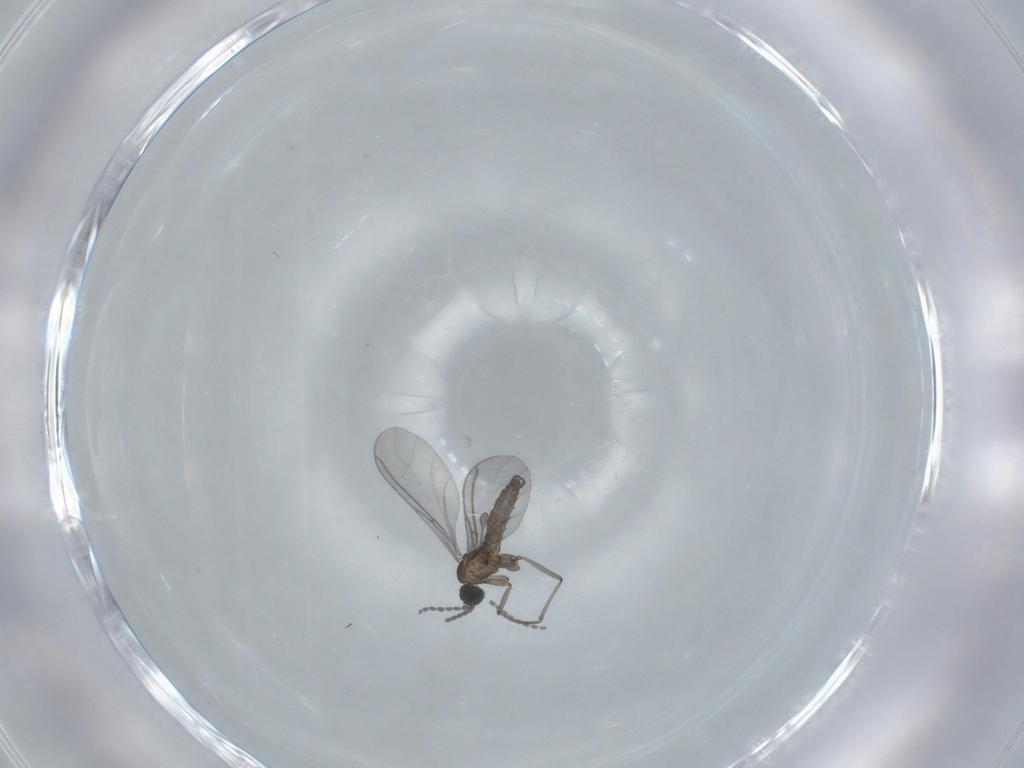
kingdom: Animalia
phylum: Arthropoda
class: Insecta
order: Diptera
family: Sciaridae
